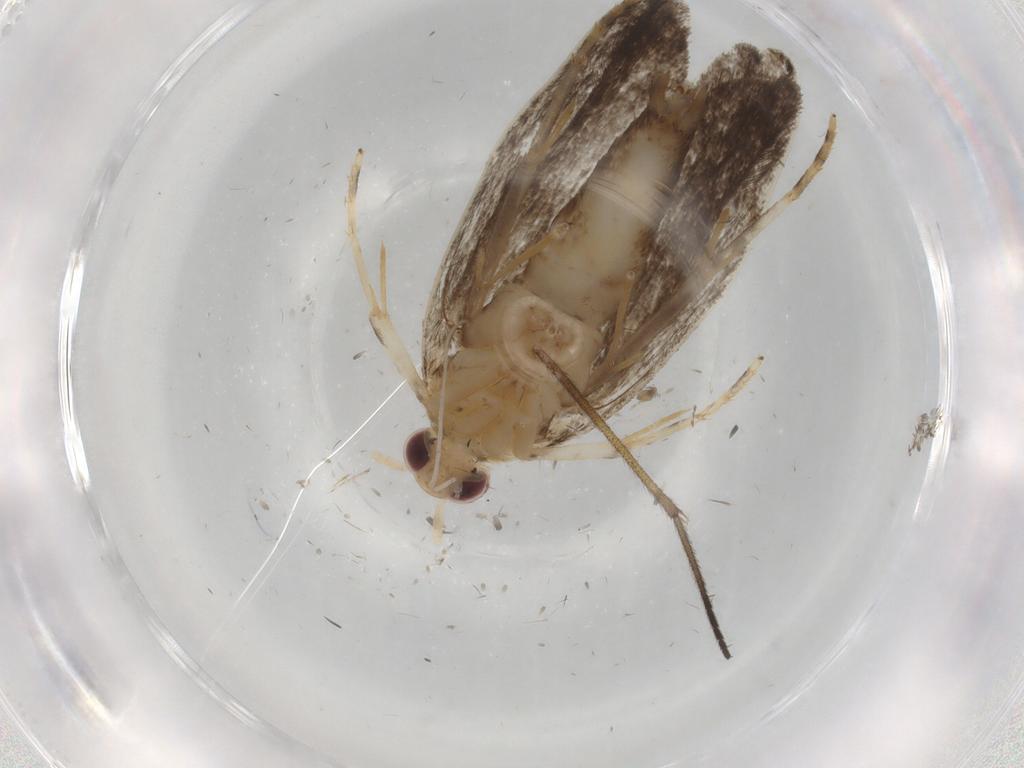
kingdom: Animalia
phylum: Arthropoda
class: Insecta
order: Lepidoptera
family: Gelechiidae
